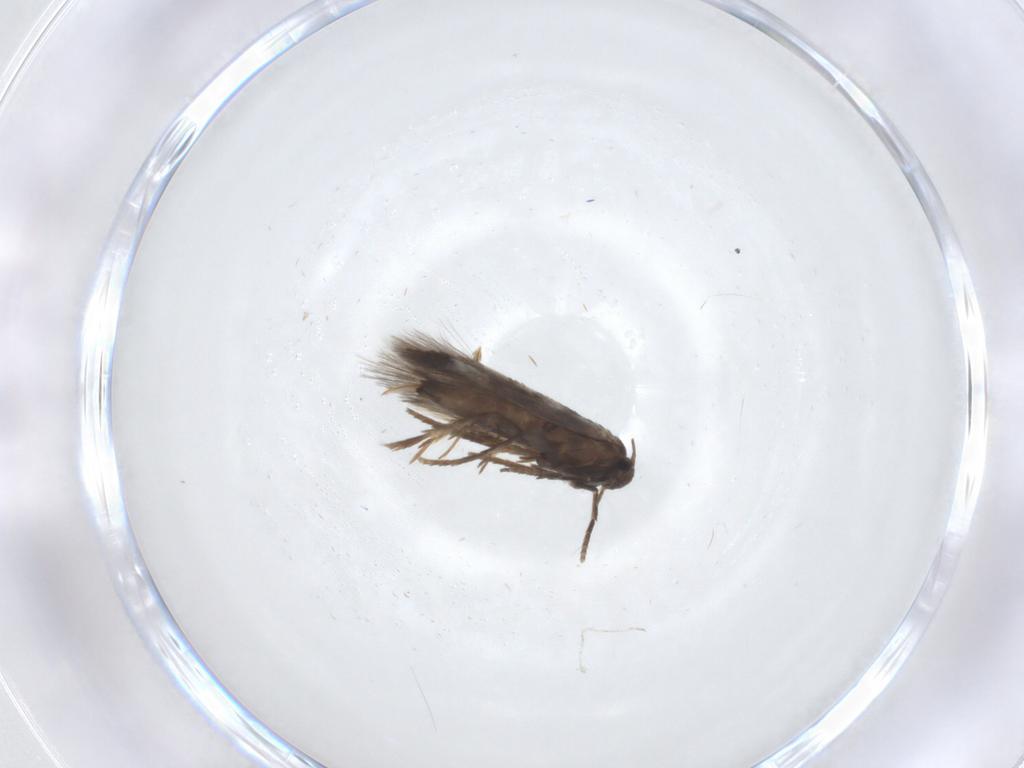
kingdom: Animalia
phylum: Arthropoda
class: Insecta
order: Lepidoptera
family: Heliozelidae
